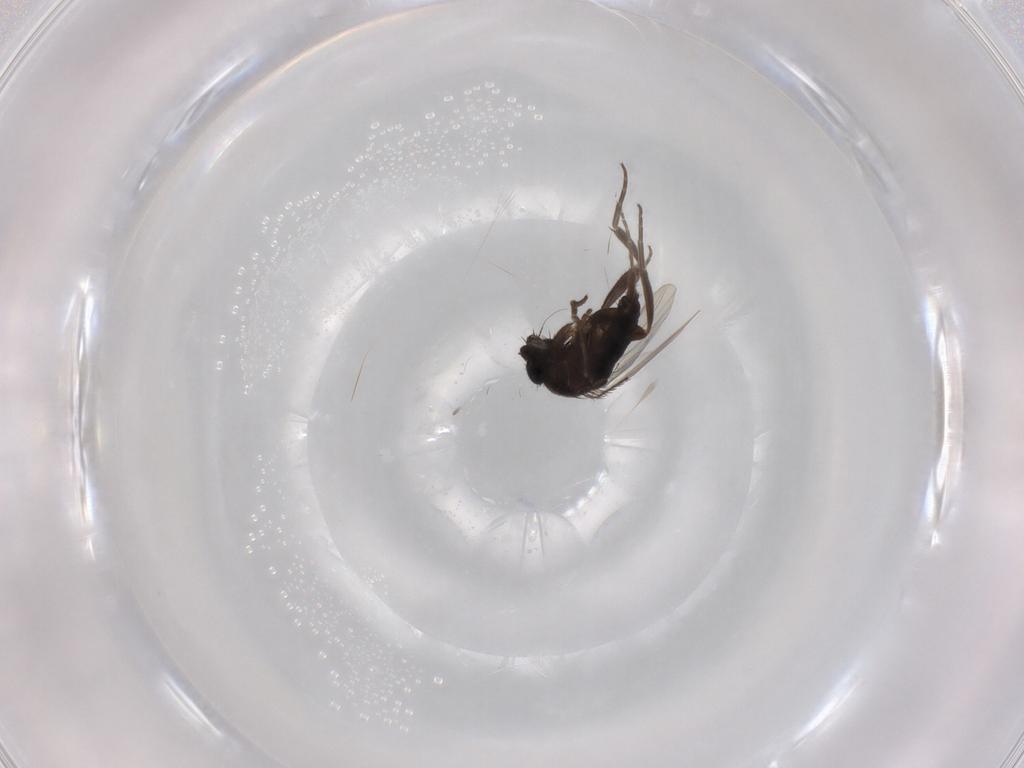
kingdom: Animalia
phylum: Arthropoda
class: Insecta
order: Diptera
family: Phoridae
